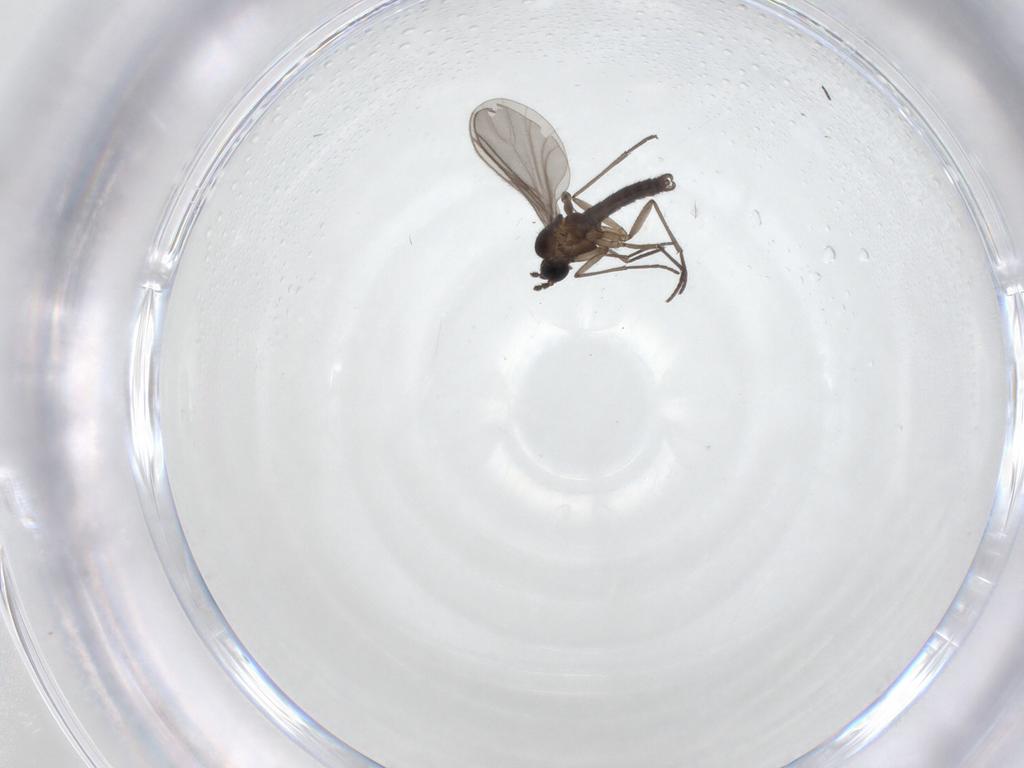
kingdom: Animalia
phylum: Arthropoda
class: Insecta
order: Diptera
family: Sciaridae
